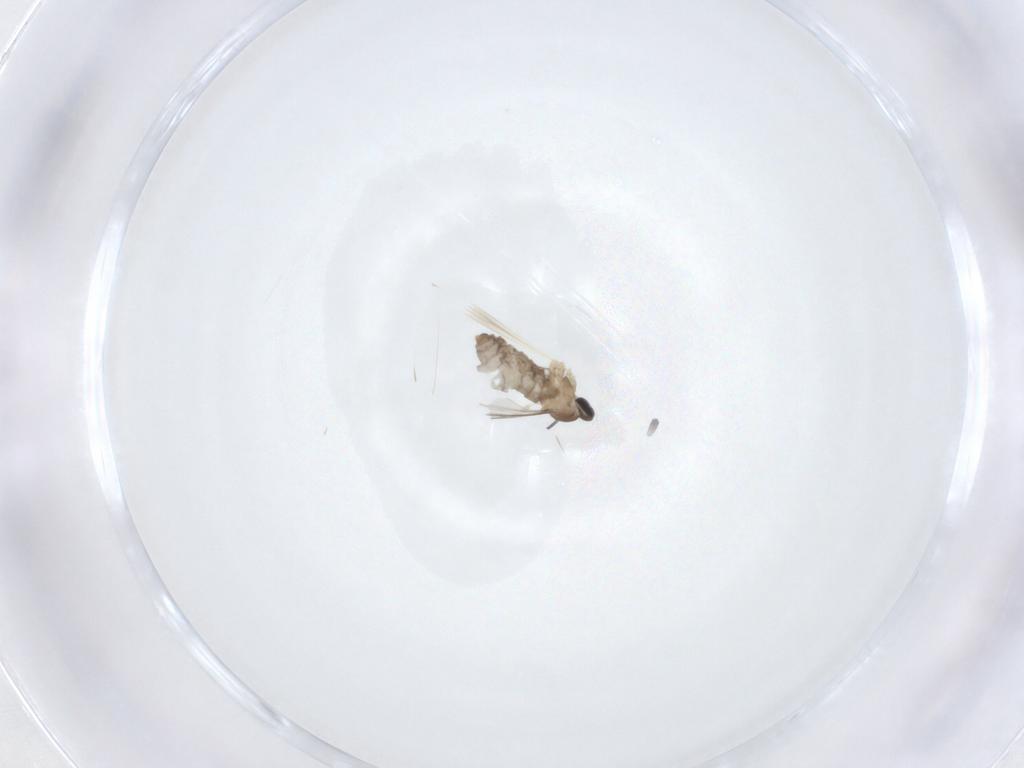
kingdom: Animalia
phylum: Arthropoda
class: Insecta
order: Diptera
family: Cecidomyiidae
